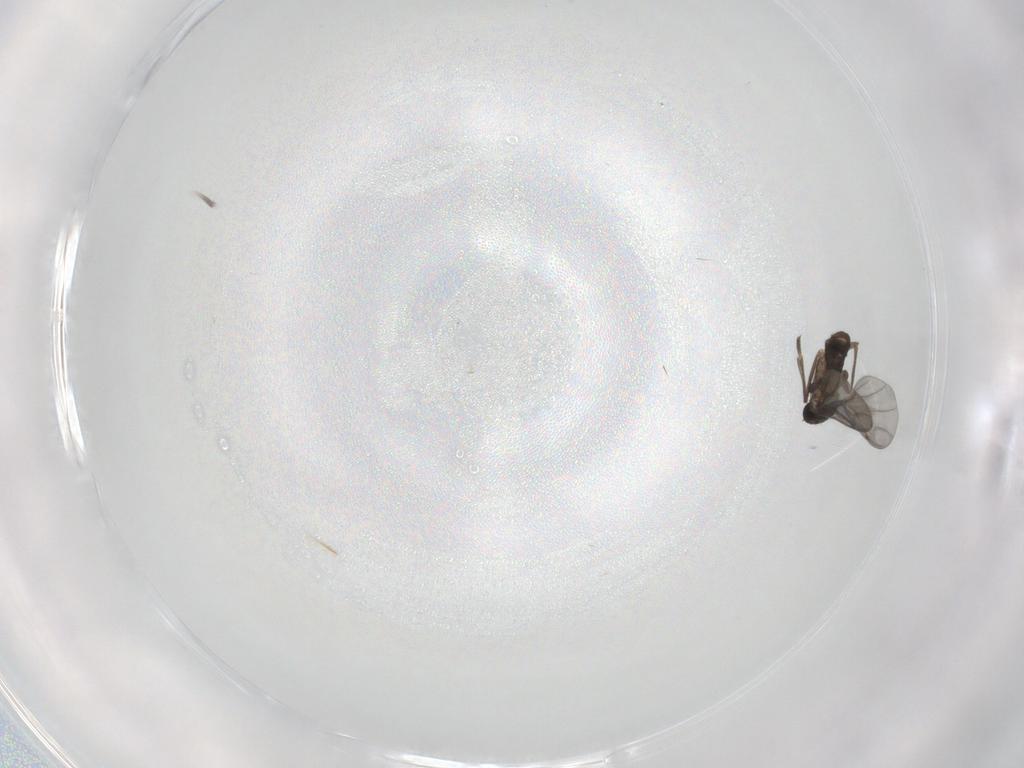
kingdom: Animalia
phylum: Arthropoda
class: Insecta
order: Diptera
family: Phoridae
